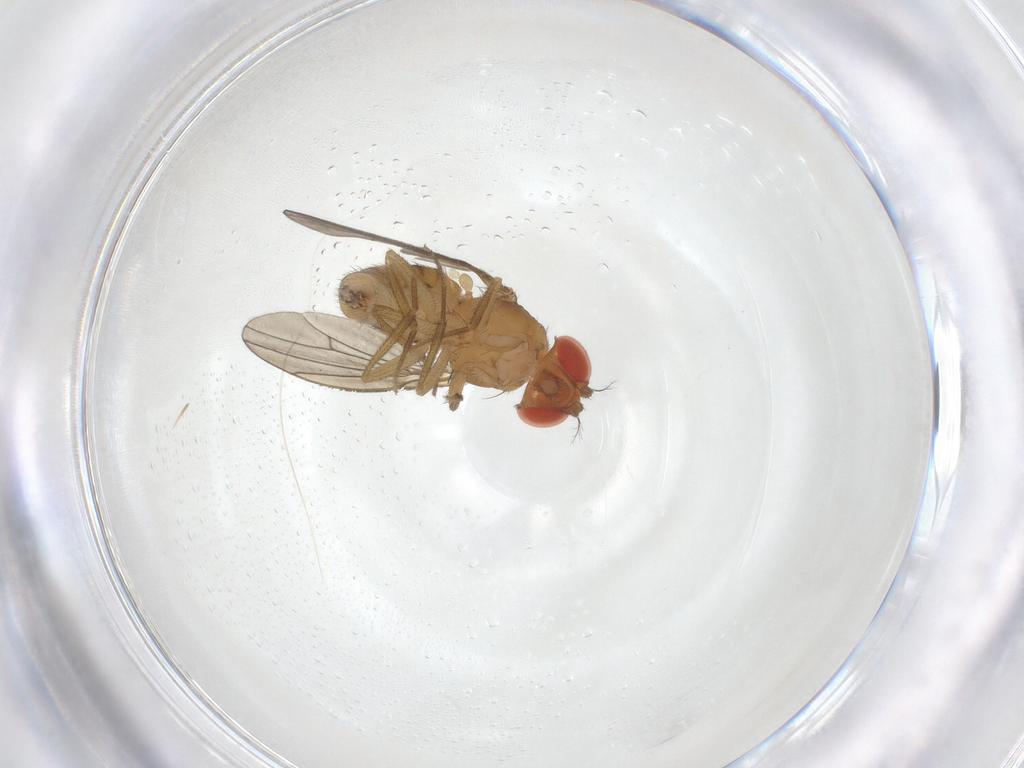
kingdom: Animalia
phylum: Arthropoda
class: Insecta
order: Diptera
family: Drosophilidae
